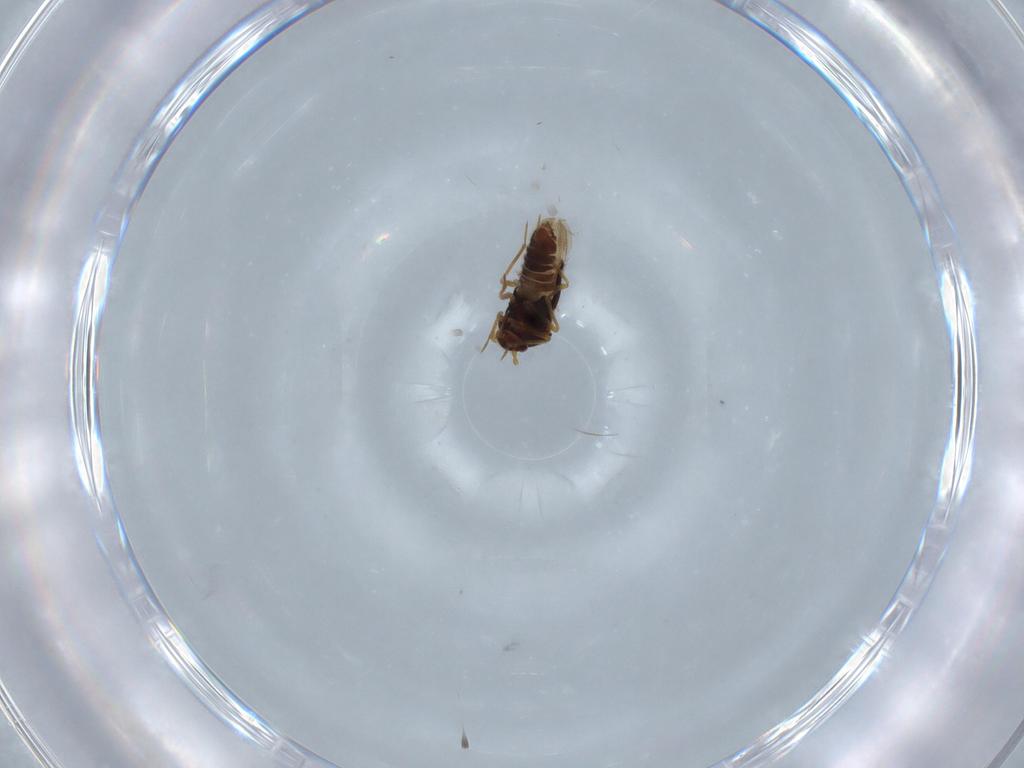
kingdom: Animalia
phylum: Arthropoda
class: Insecta
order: Hemiptera
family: Schizopteridae
